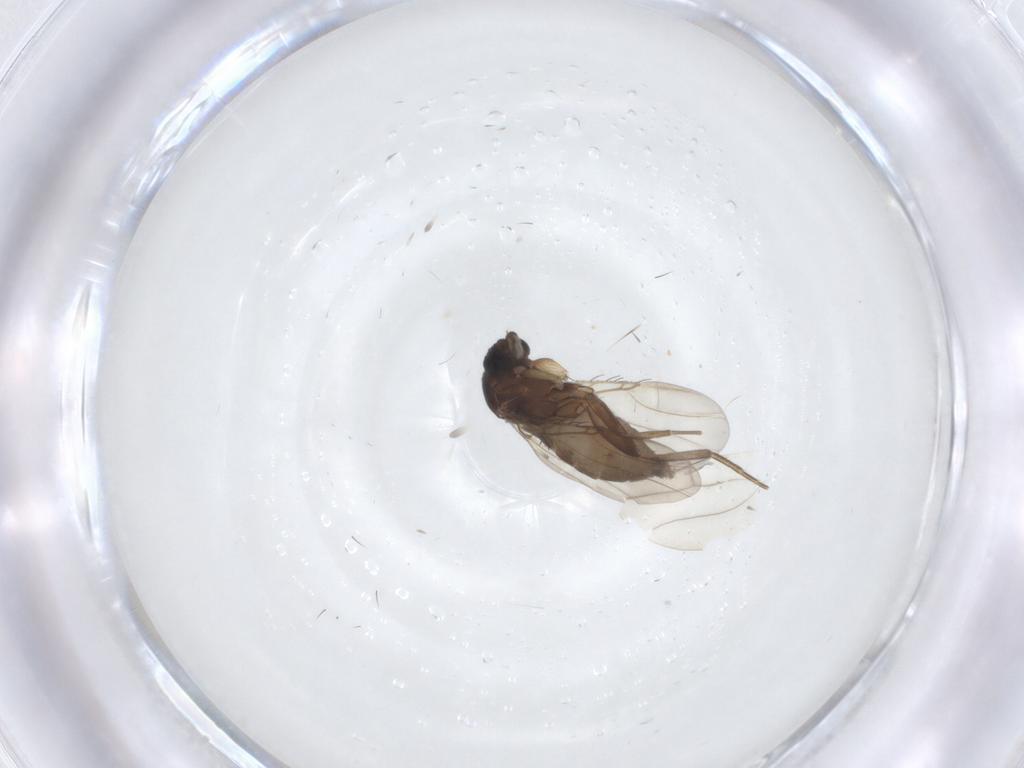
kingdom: Animalia
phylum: Arthropoda
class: Insecta
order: Diptera
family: Phoridae
